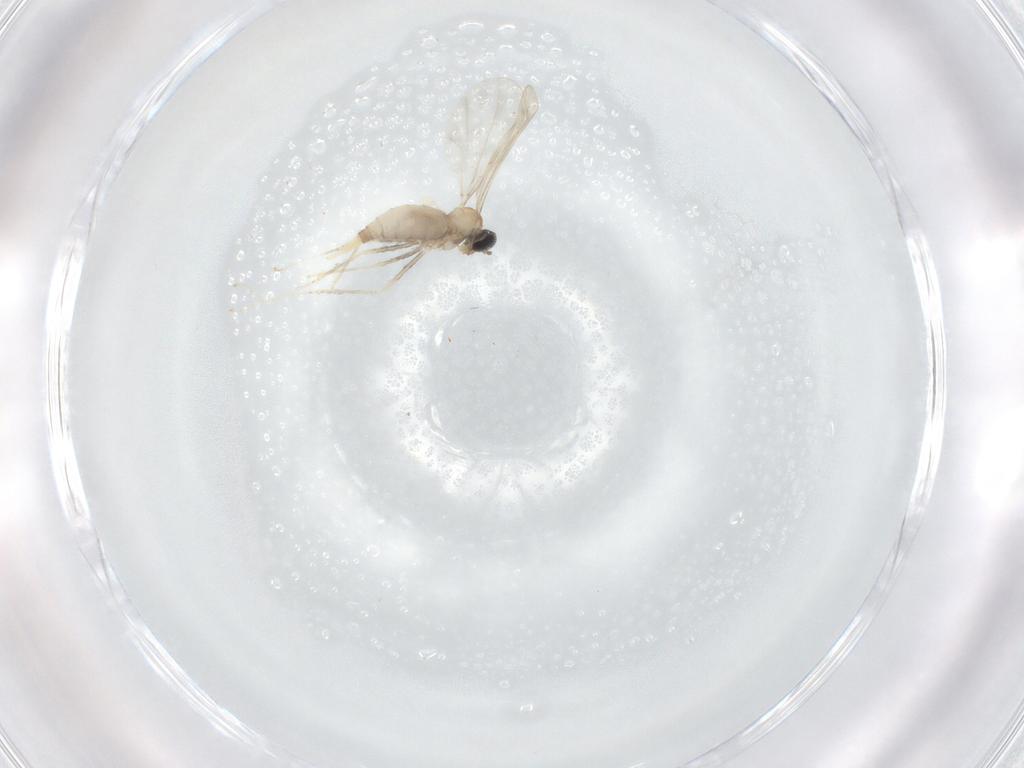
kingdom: Animalia
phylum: Arthropoda
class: Insecta
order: Diptera
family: Cecidomyiidae
